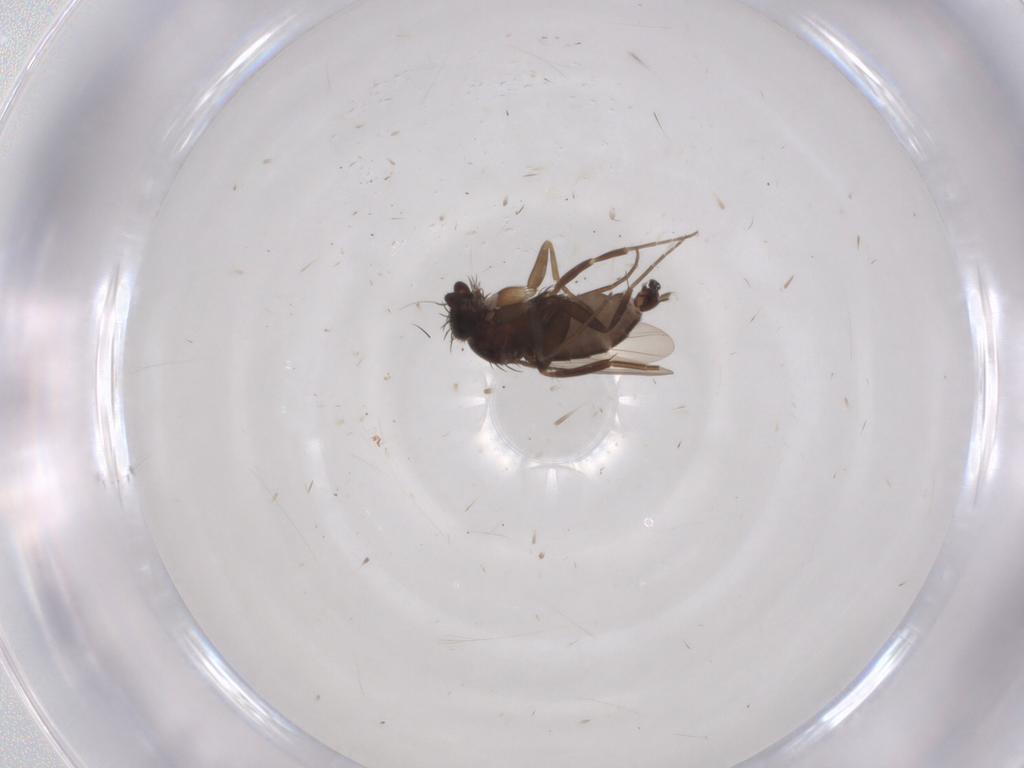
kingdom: Animalia
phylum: Arthropoda
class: Insecta
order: Diptera
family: Phoridae
